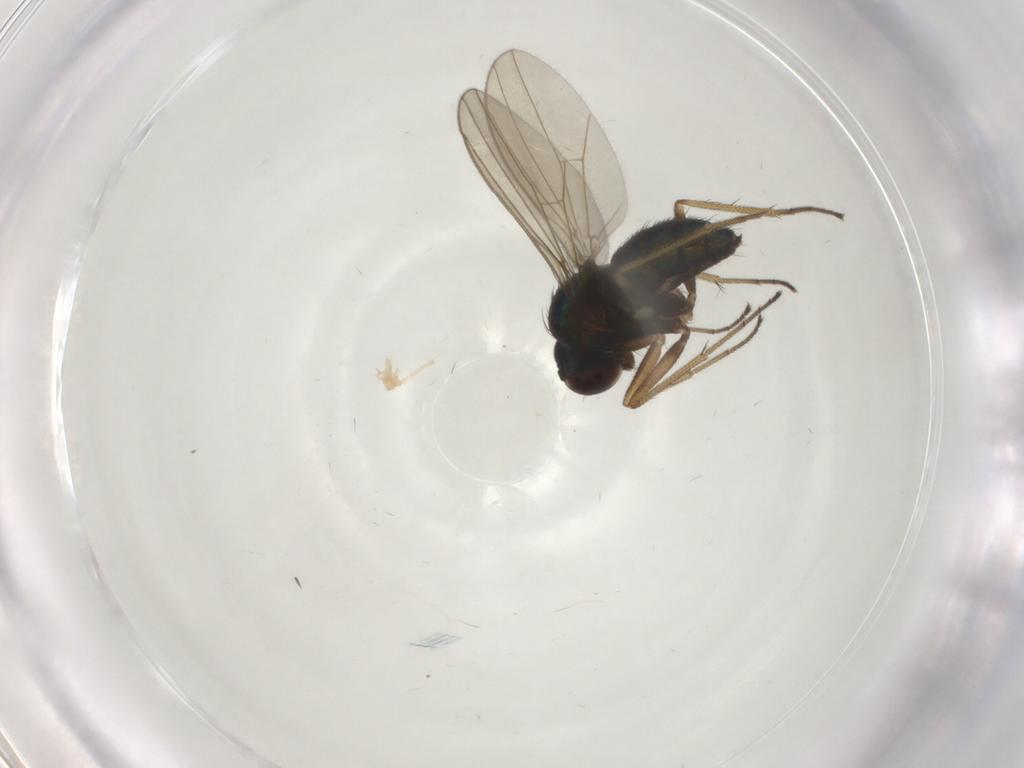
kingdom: Animalia
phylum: Arthropoda
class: Insecta
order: Diptera
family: Dolichopodidae
